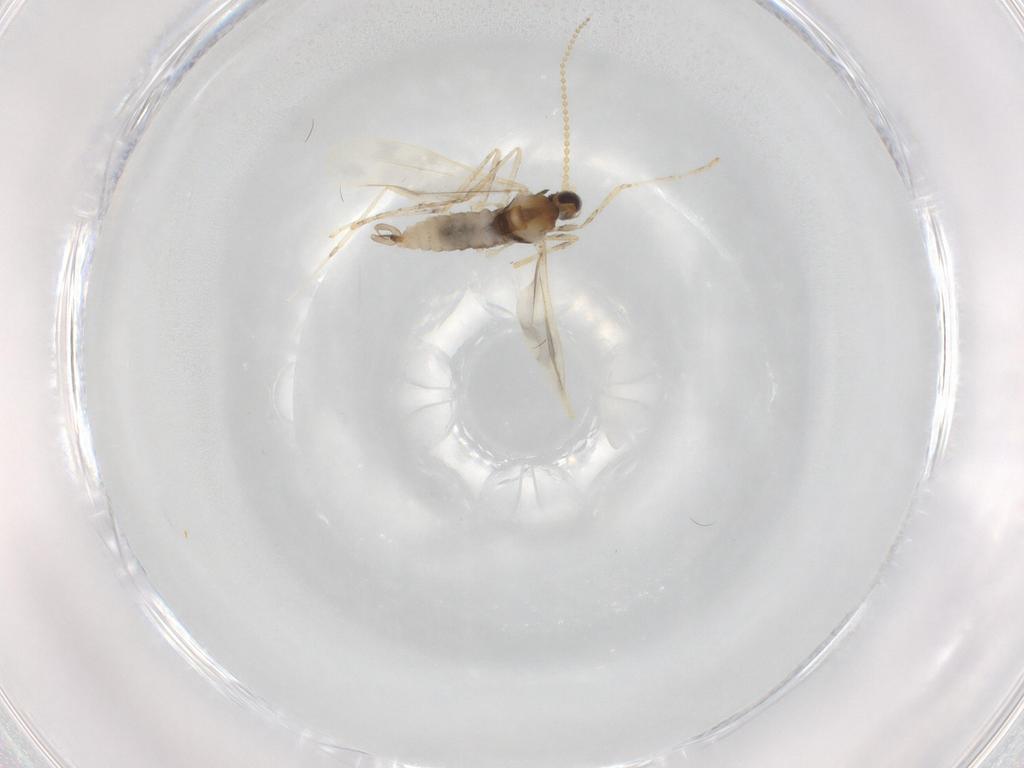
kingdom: Animalia
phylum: Arthropoda
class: Insecta
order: Diptera
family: Cecidomyiidae
